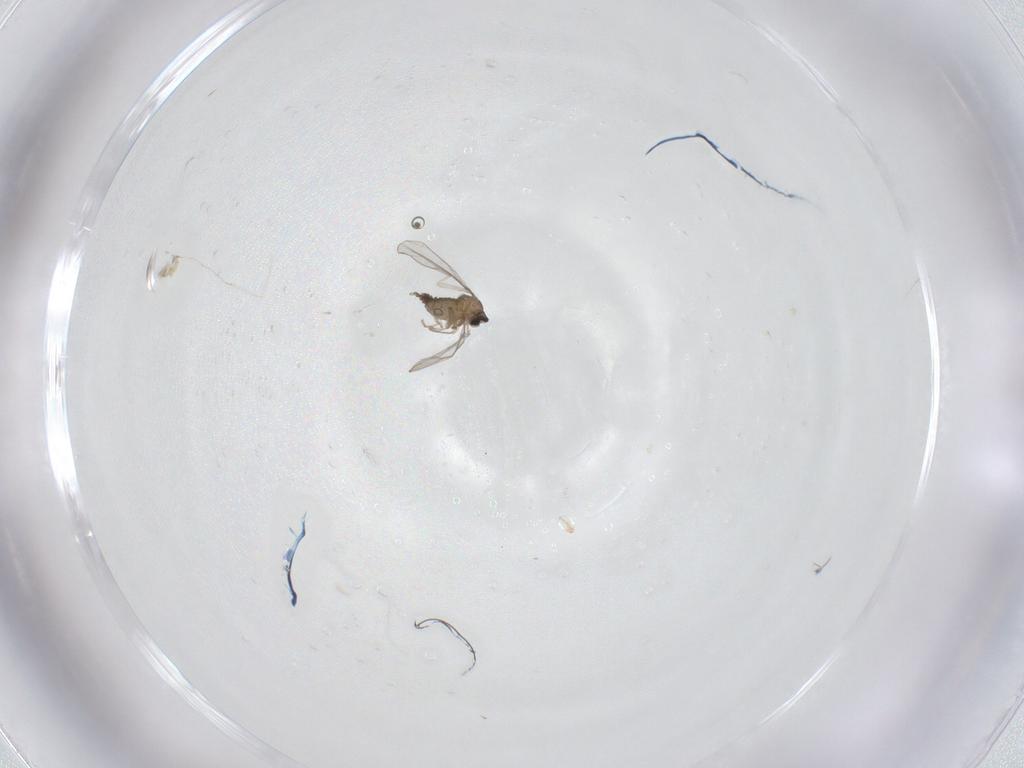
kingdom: Animalia
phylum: Arthropoda
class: Insecta
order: Diptera
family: Cecidomyiidae
